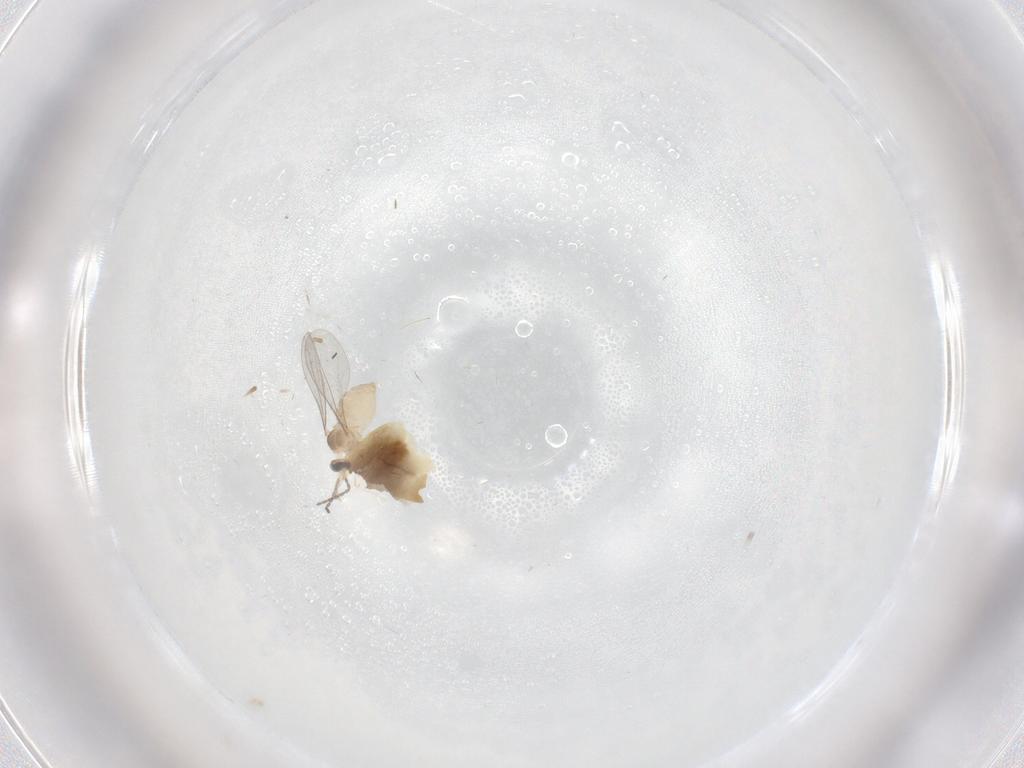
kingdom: Animalia
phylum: Arthropoda
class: Insecta
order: Diptera
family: Cecidomyiidae
